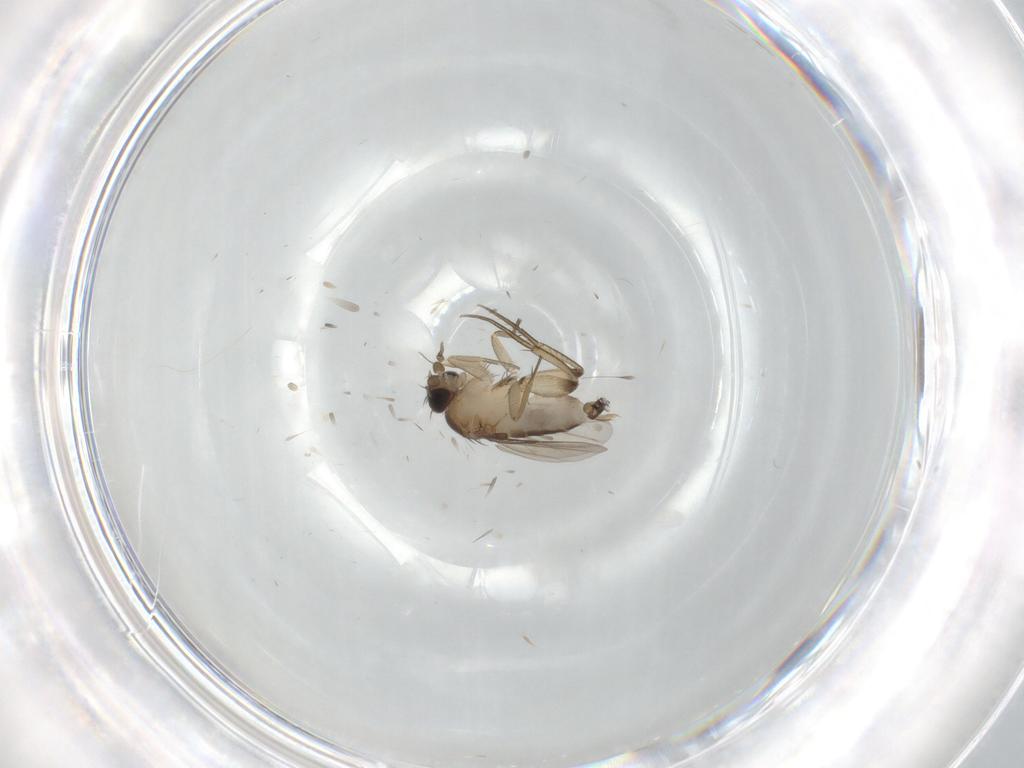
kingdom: Animalia
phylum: Arthropoda
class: Insecta
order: Diptera
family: Phoridae
